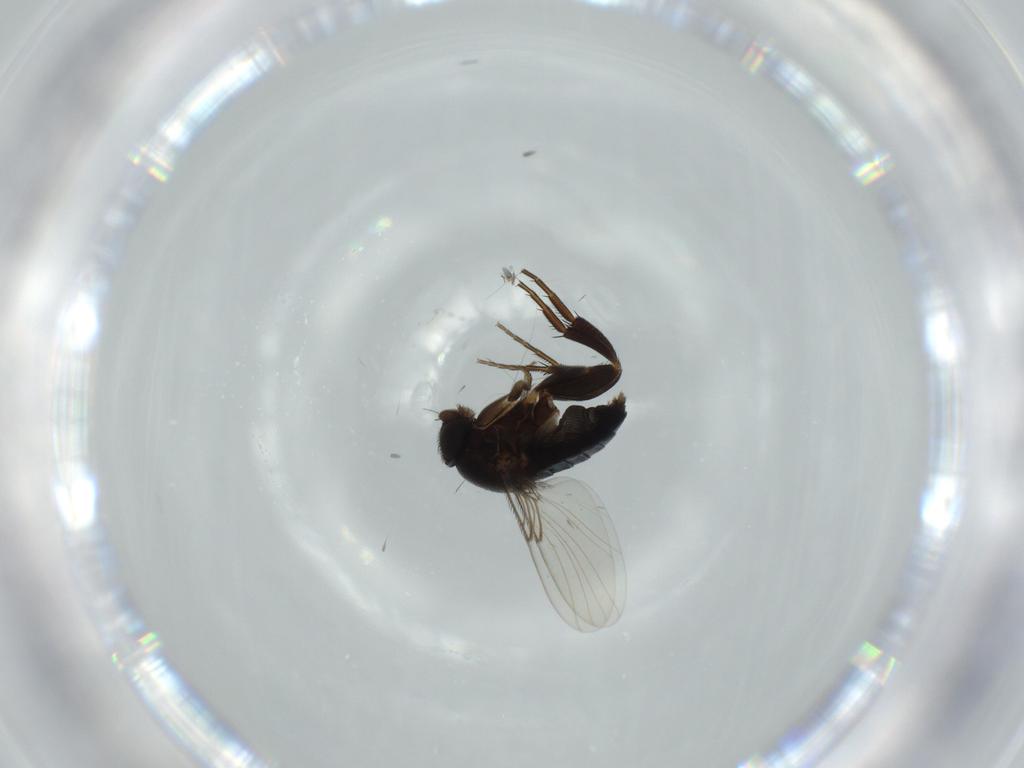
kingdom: Animalia
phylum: Arthropoda
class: Insecta
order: Diptera
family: Phoridae
